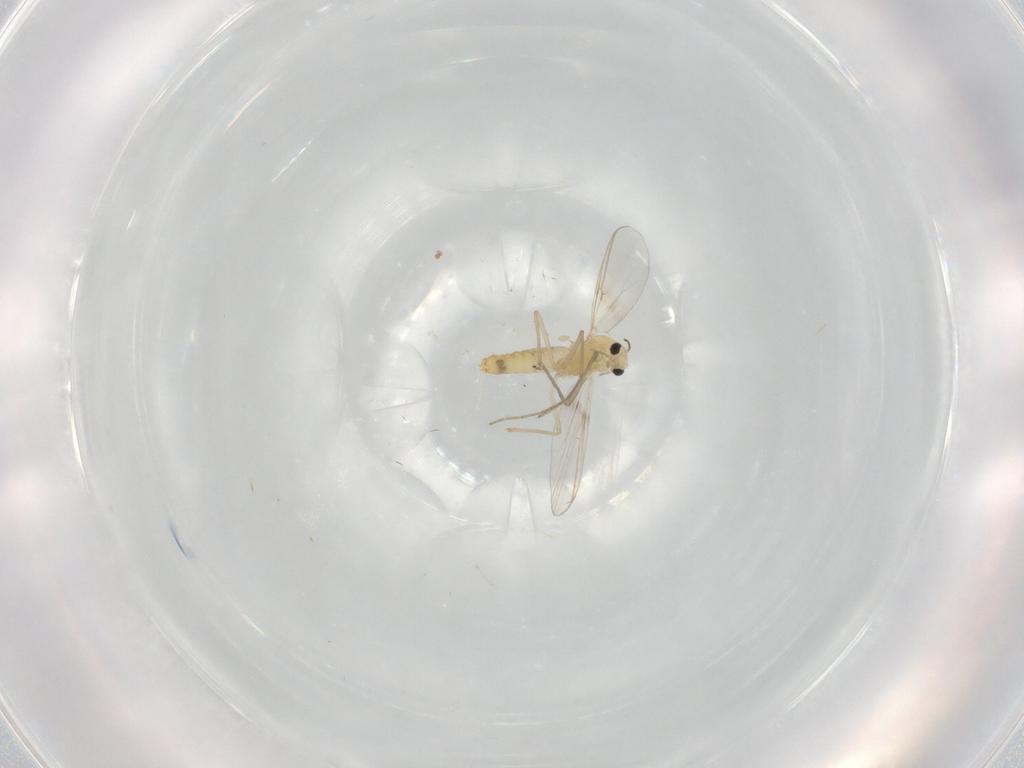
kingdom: Animalia
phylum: Arthropoda
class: Insecta
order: Diptera
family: Chironomidae
